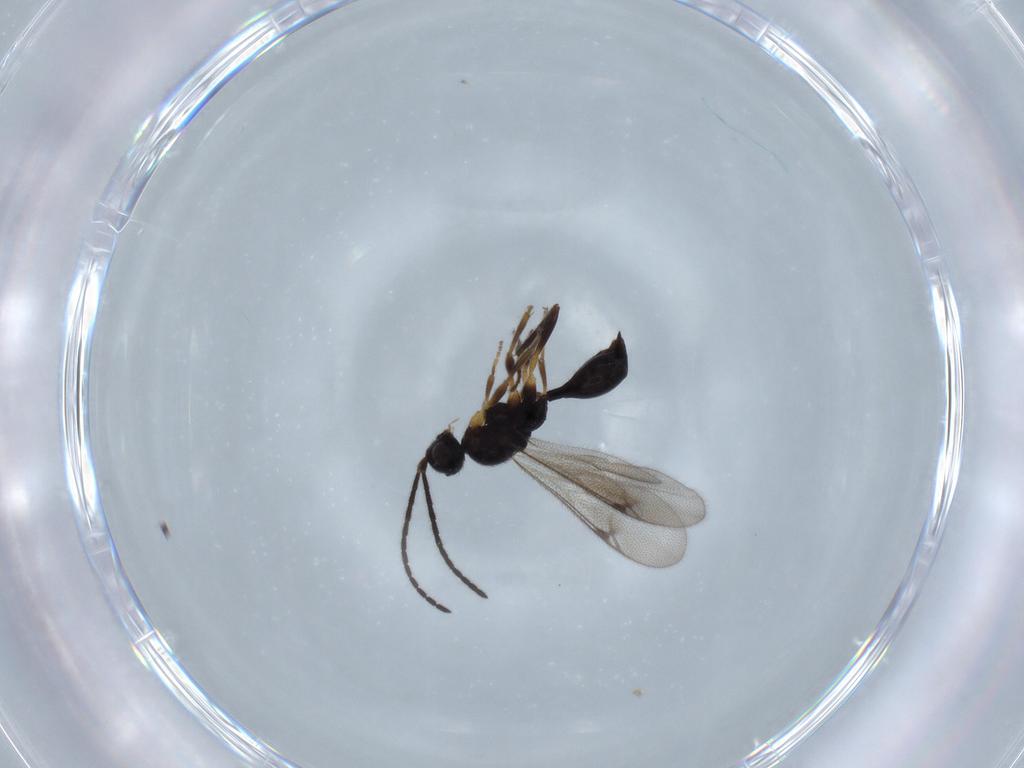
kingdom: Animalia
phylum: Arthropoda
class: Insecta
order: Hymenoptera
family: Proctotrupidae
